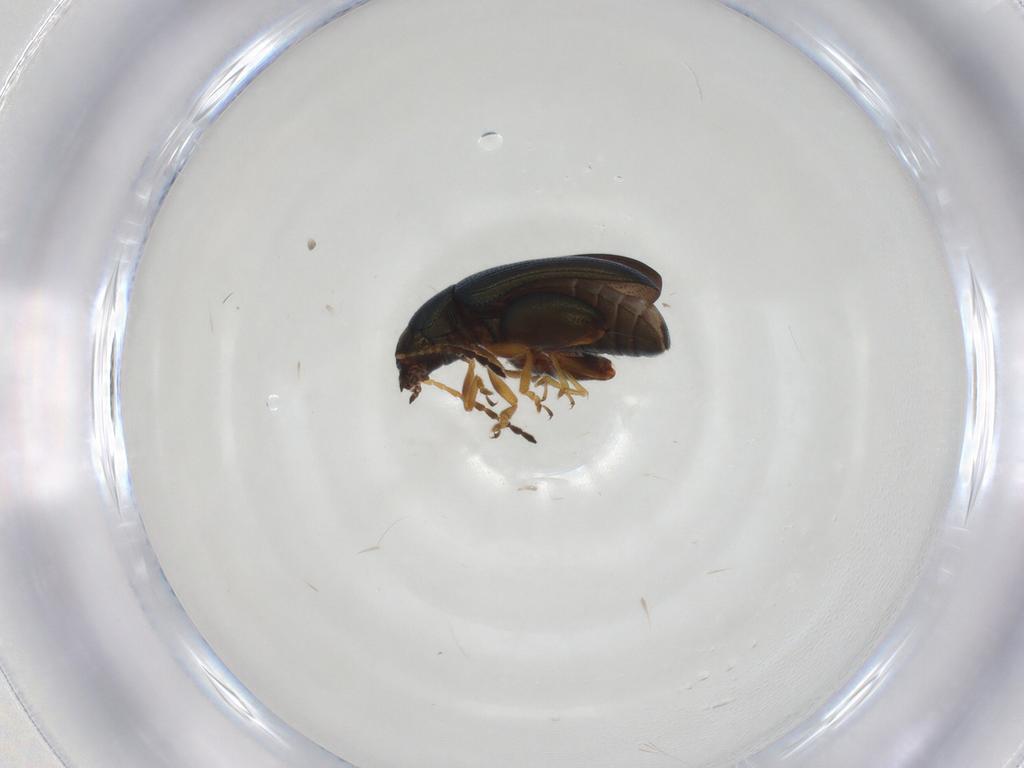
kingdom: Animalia
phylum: Arthropoda
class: Insecta
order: Coleoptera
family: Chrysomelidae
